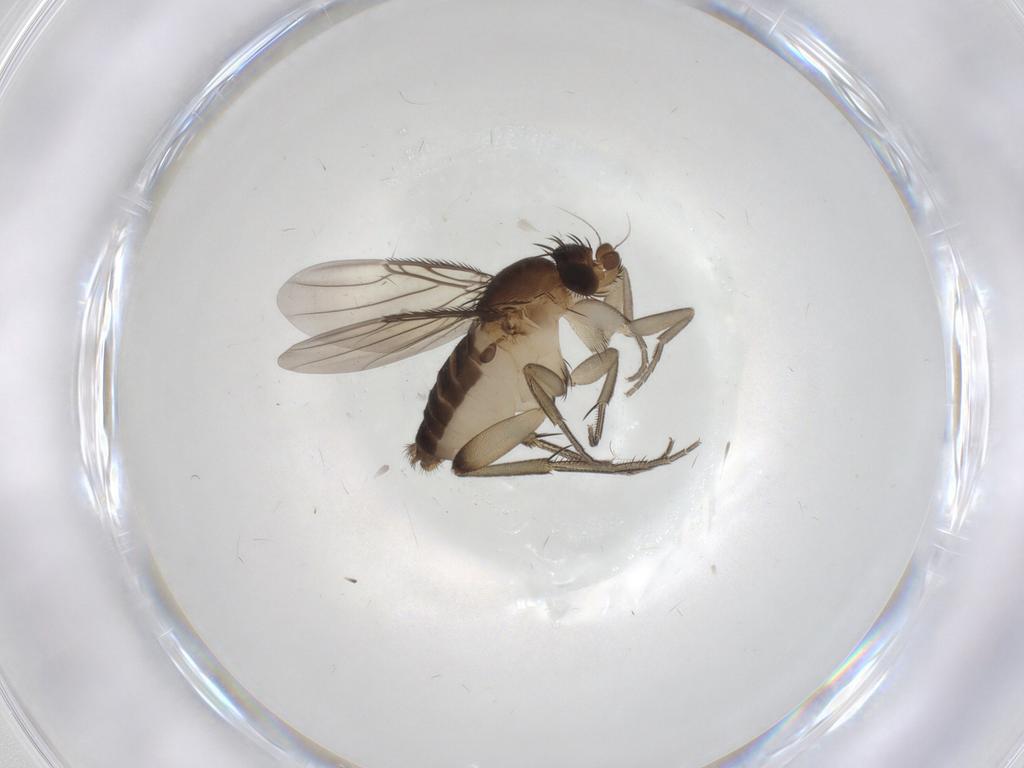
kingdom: Animalia
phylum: Arthropoda
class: Insecta
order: Diptera
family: Phoridae
